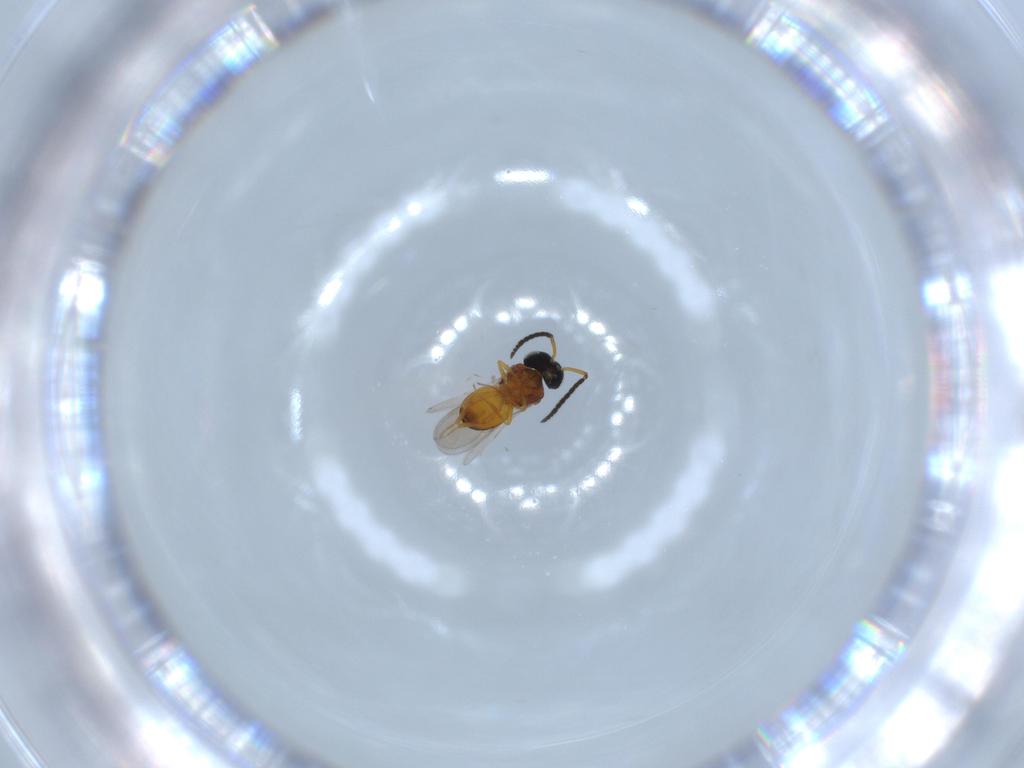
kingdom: Animalia
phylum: Arthropoda
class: Insecta
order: Hymenoptera
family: Scelionidae
